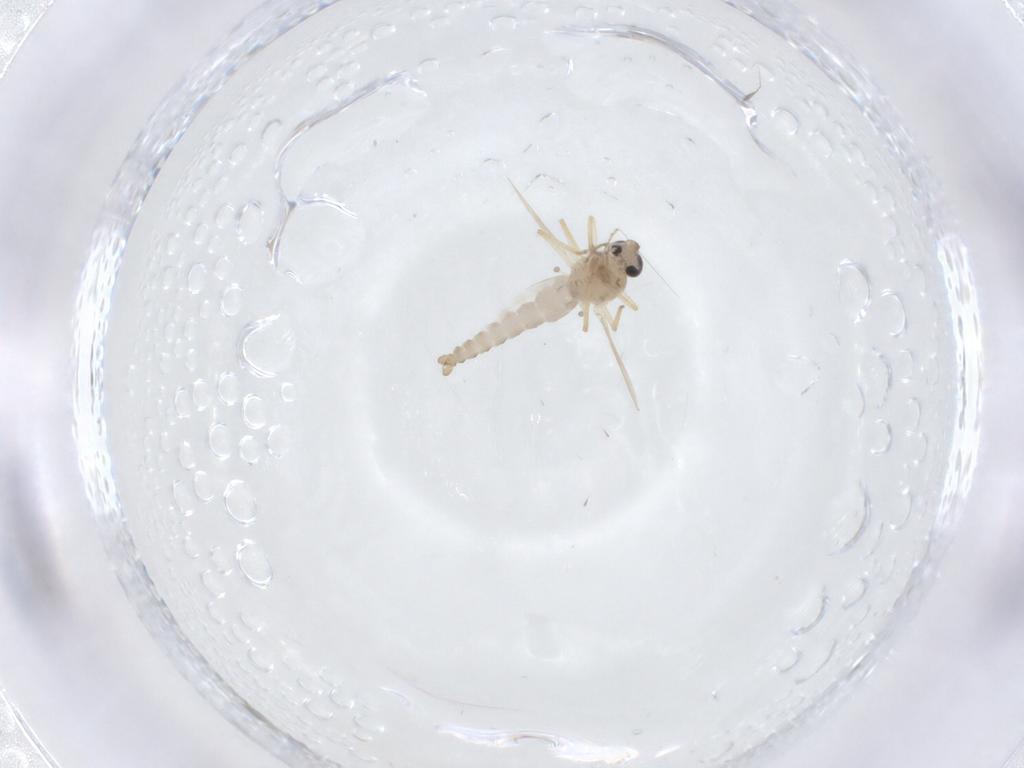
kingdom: Animalia
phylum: Arthropoda
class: Insecta
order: Diptera
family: Ceratopogonidae
